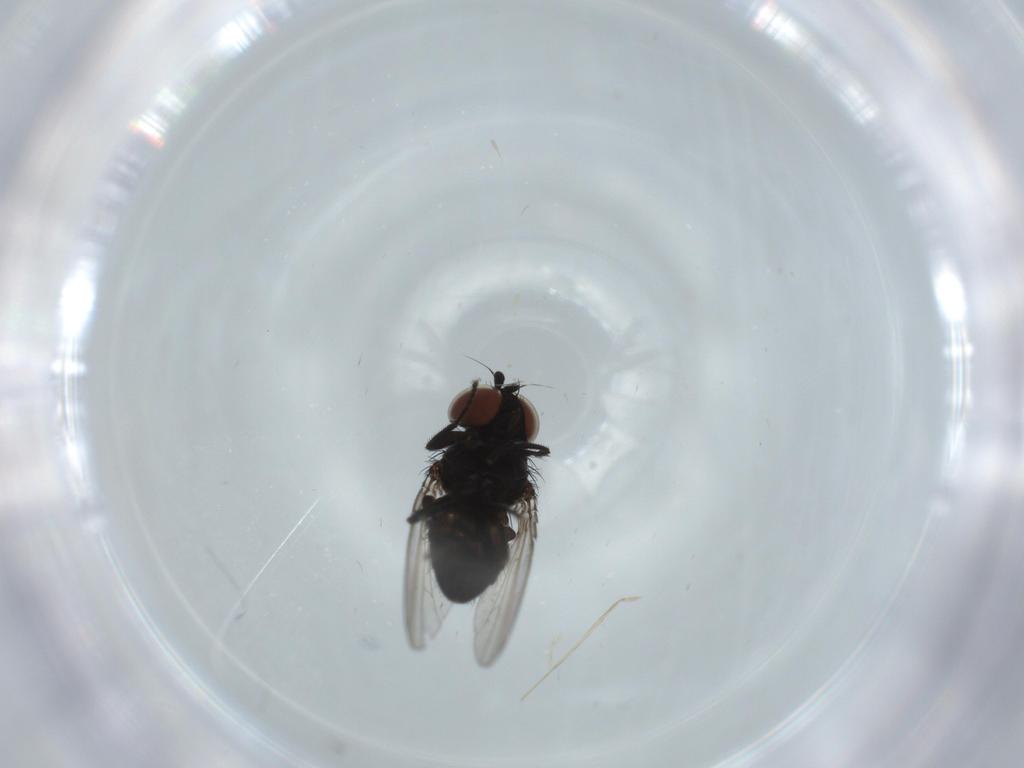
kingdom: Animalia
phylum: Arthropoda
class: Insecta
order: Diptera
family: Milichiidae
